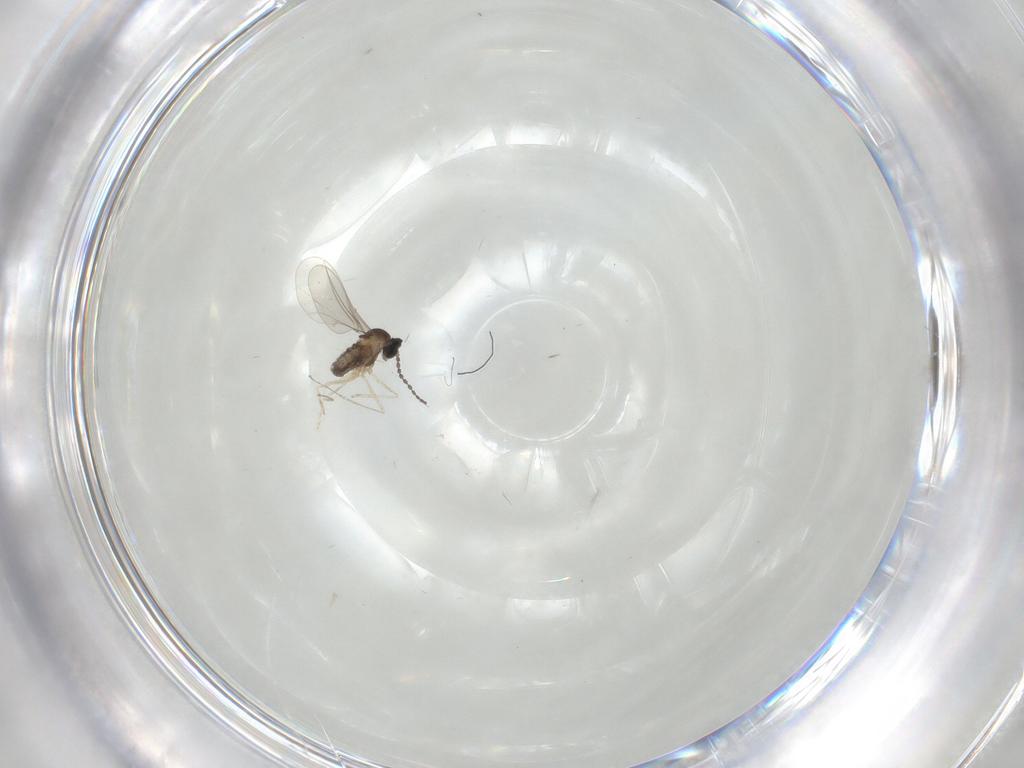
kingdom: Animalia
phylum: Arthropoda
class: Insecta
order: Diptera
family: Cecidomyiidae
